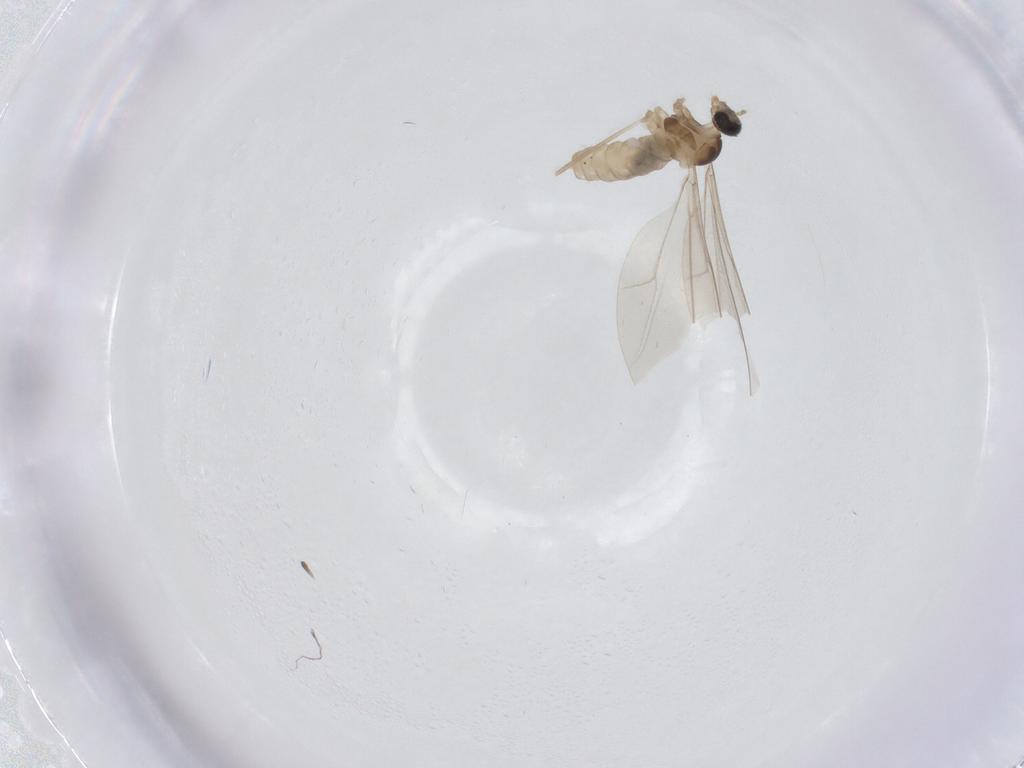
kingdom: Animalia
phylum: Arthropoda
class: Insecta
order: Diptera
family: Cecidomyiidae
